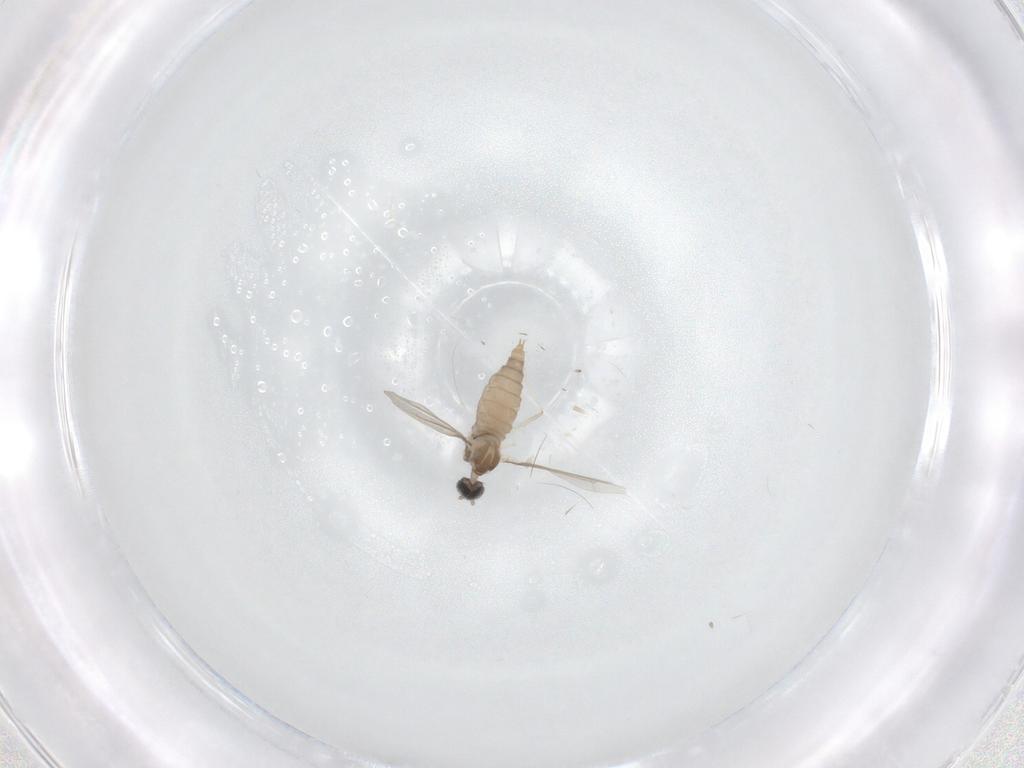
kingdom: Animalia
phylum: Arthropoda
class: Insecta
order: Diptera
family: Cecidomyiidae
